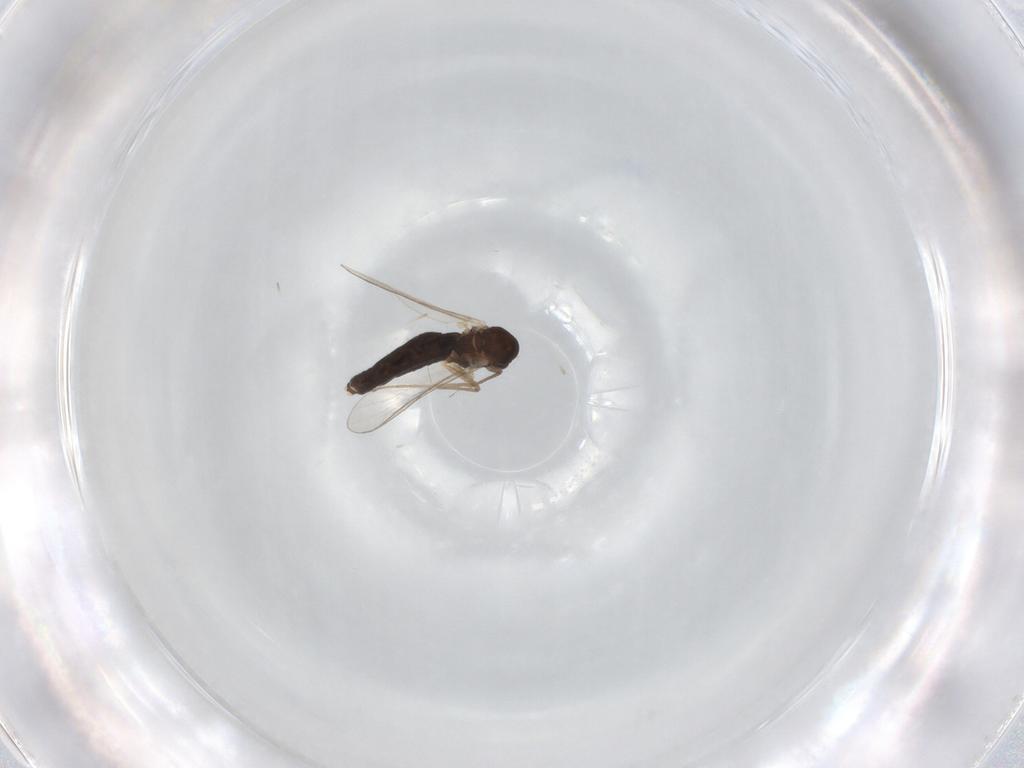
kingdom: Animalia
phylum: Arthropoda
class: Insecta
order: Diptera
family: Chironomidae
